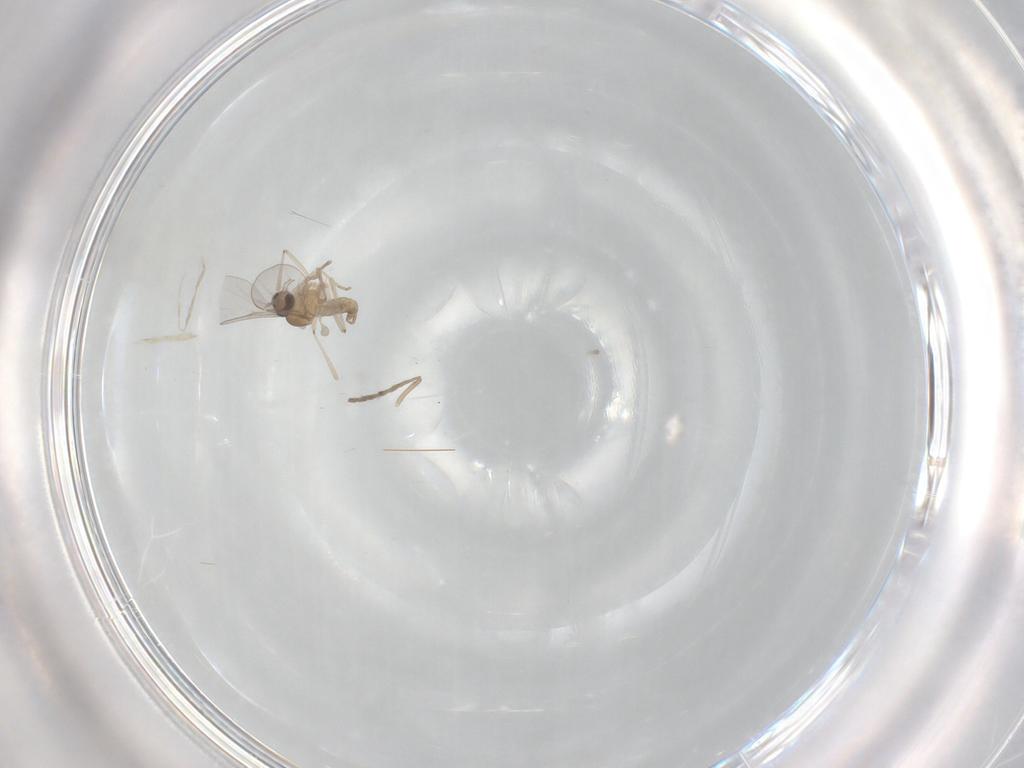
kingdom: Animalia
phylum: Arthropoda
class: Insecta
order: Diptera
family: Psychodidae
